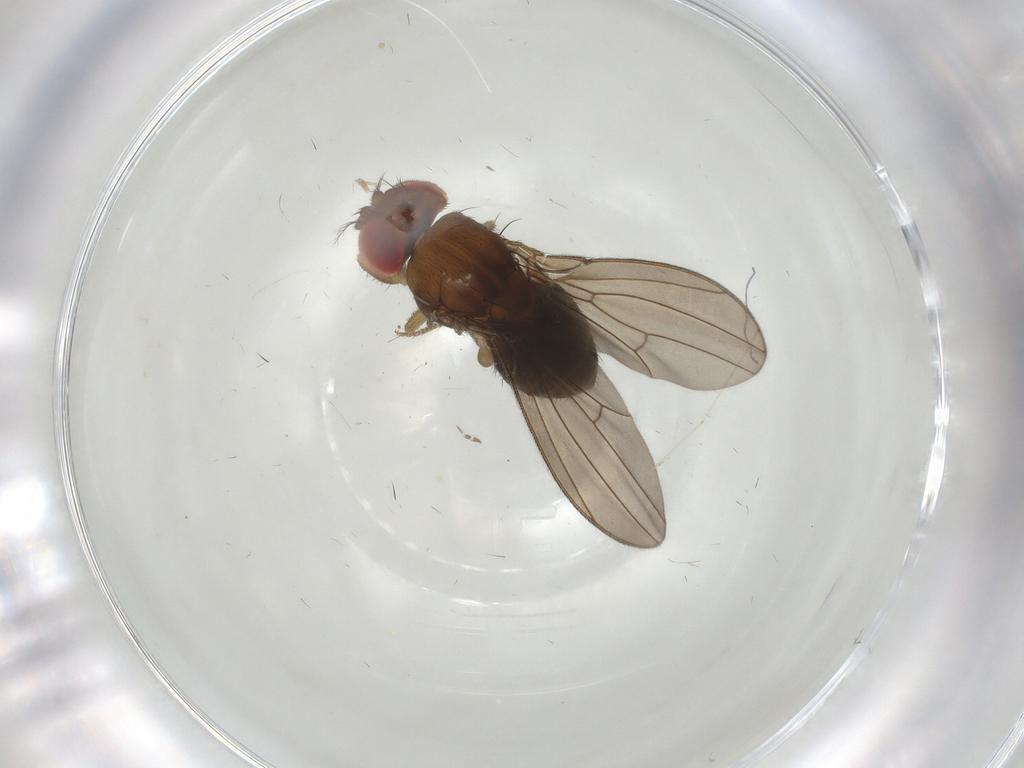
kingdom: Animalia
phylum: Arthropoda
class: Insecta
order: Diptera
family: Drosophilidae
